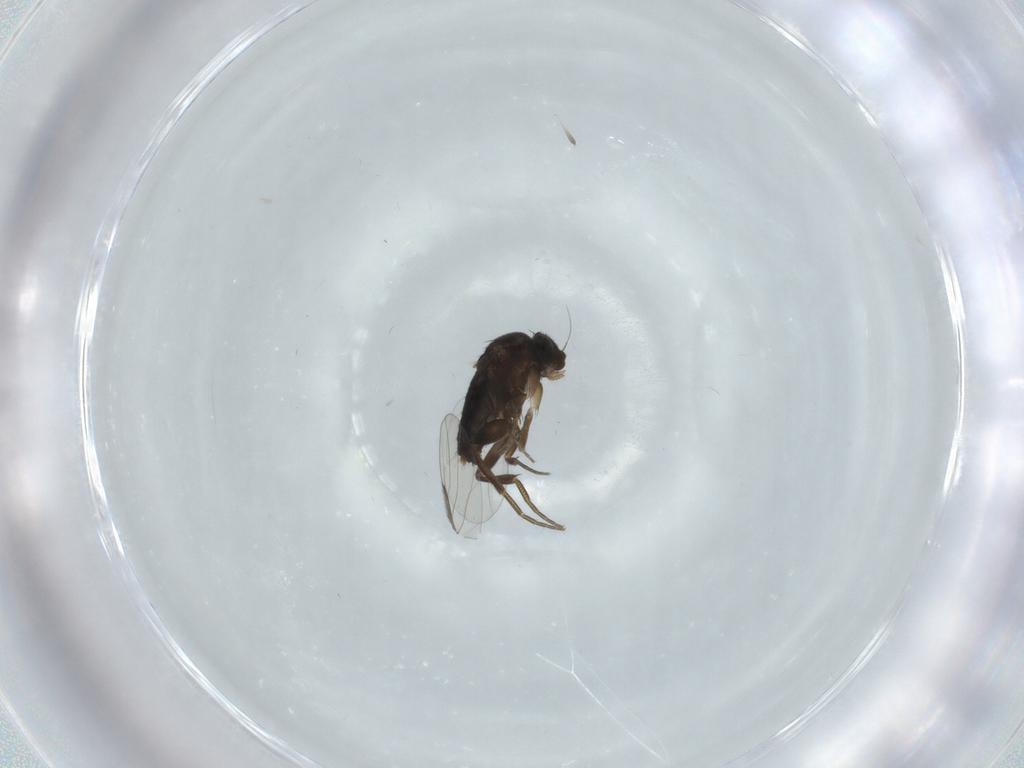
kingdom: Animalia
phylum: Arthropoda
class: Insecta
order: Diptera
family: Phoridae
